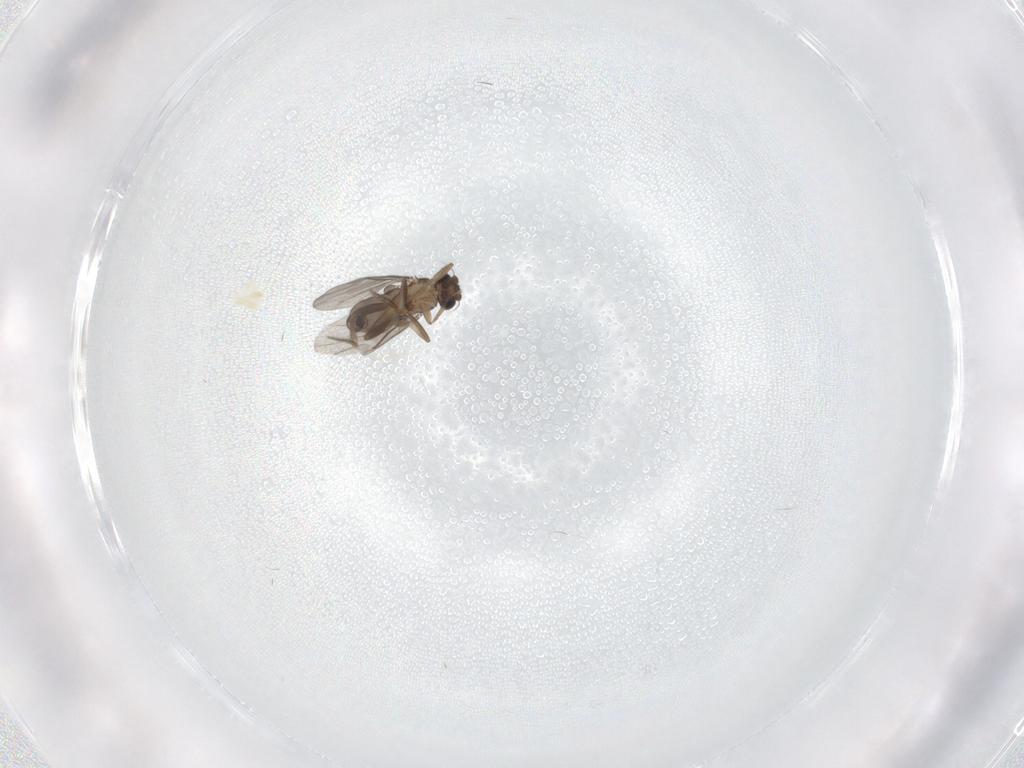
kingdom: Animalia
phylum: Arthropoda
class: Insecta
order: Diptera
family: Cecidomyiidae
